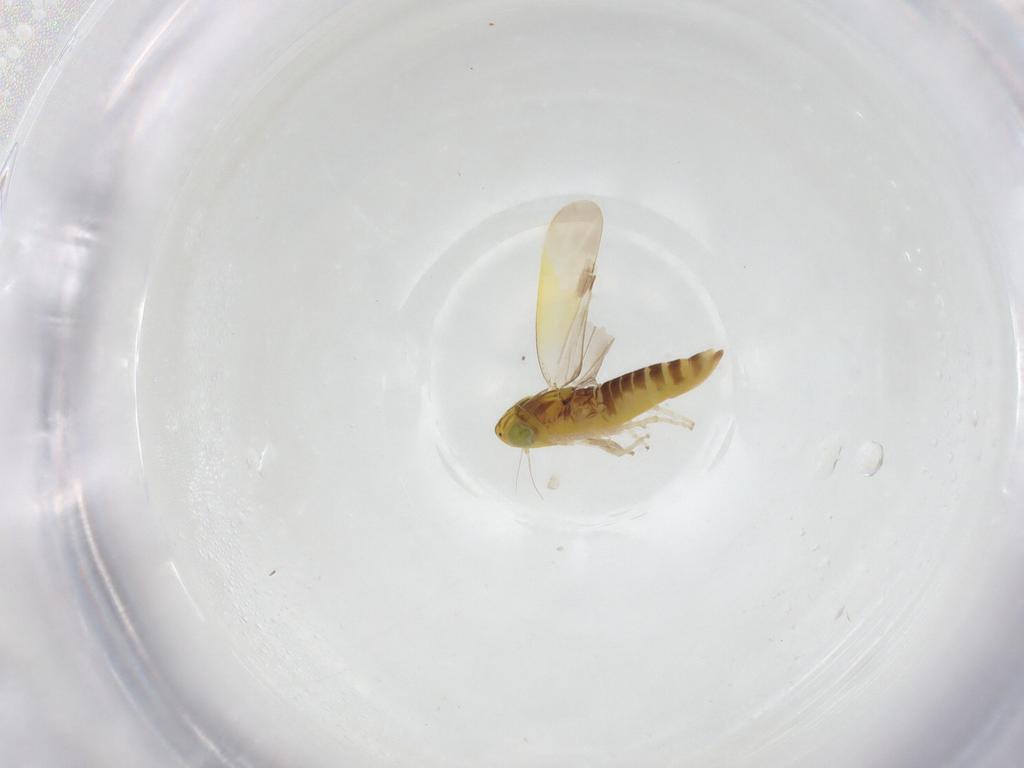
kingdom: Animalia
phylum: Arthropoda
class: Insecta
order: Hemiptera
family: Cicadellidae
